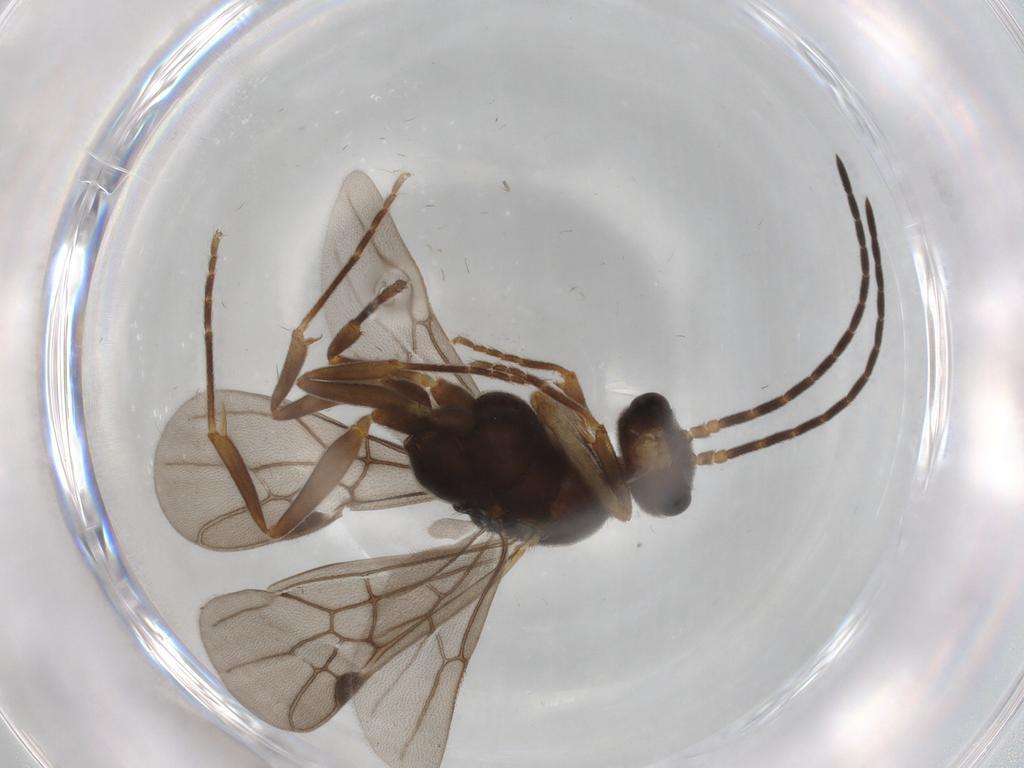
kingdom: Animalia
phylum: Arthropoda
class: Insecta
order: Hymenoptera
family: Formicidae
